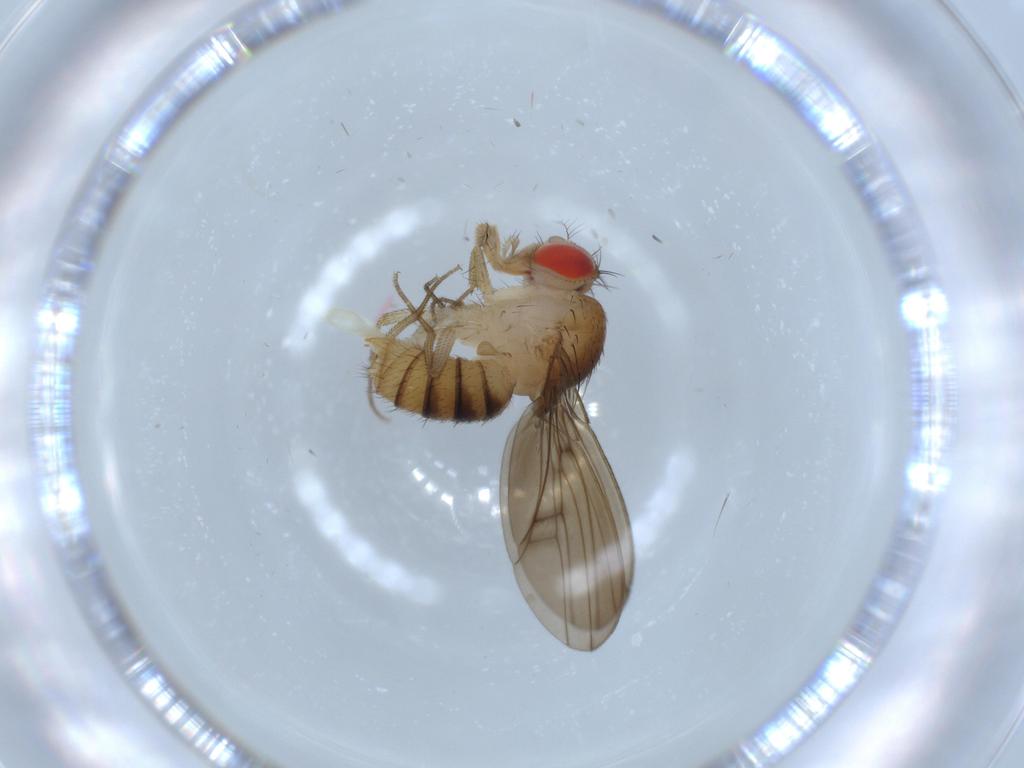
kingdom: Animalia
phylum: Arthropoda
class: Insecta
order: Diptera
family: Drosophilidae
